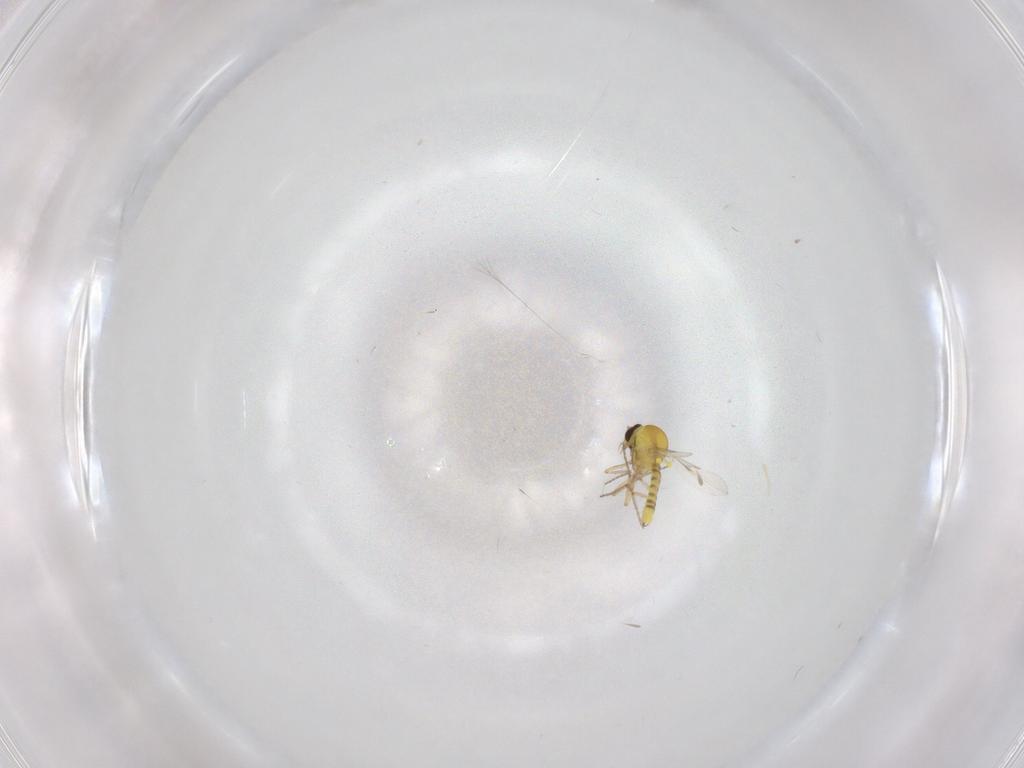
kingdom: Animalia
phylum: Arthropoda
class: Insecta
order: Diptera
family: Ceratopogonidae
